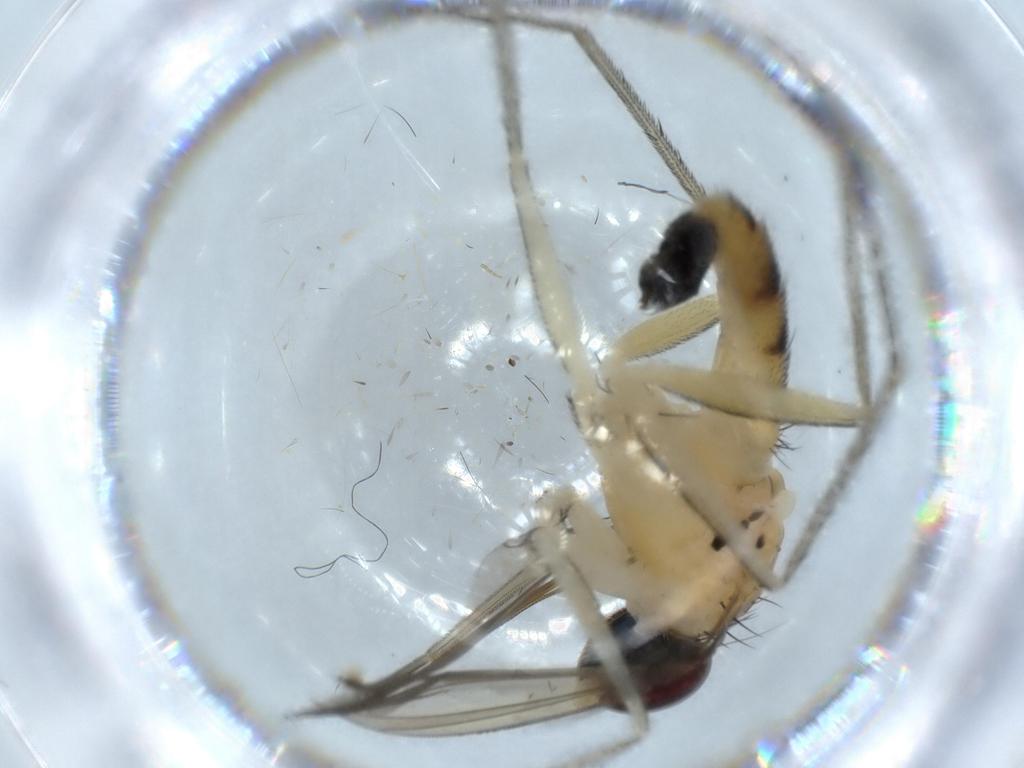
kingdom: Animalia
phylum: Arthropoda
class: Insecta
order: Diptera
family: Dolichopodidae
